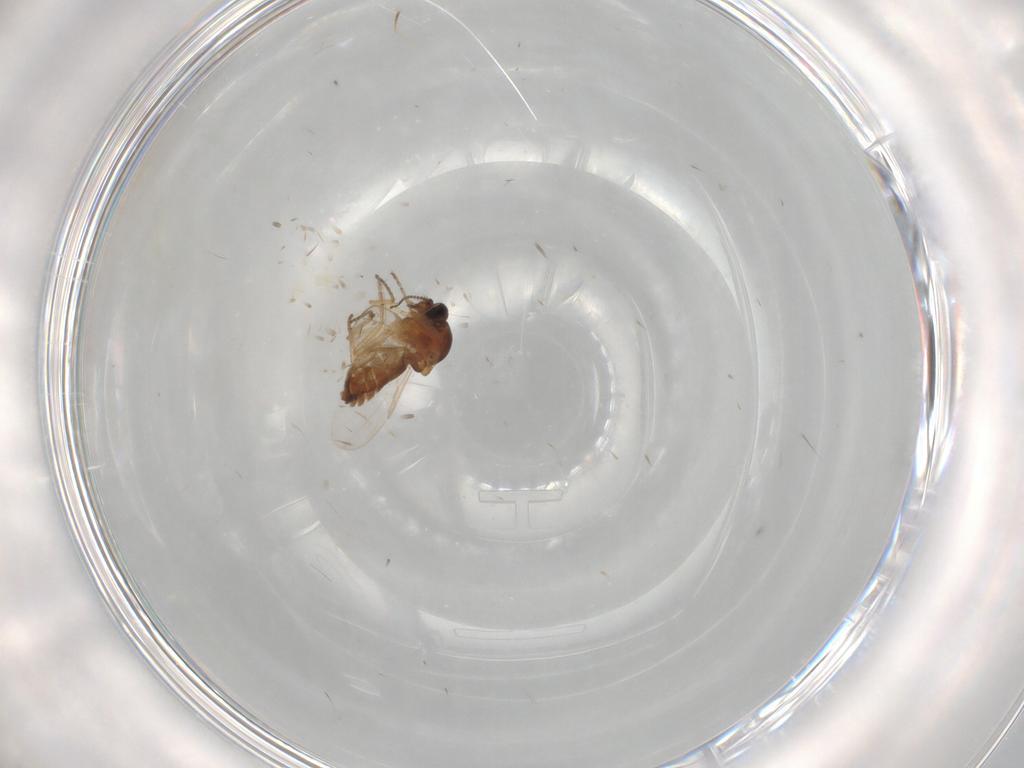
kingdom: Animalia
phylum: Arthropoda
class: Insecta
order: Diptera
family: Ceratopogonidae
